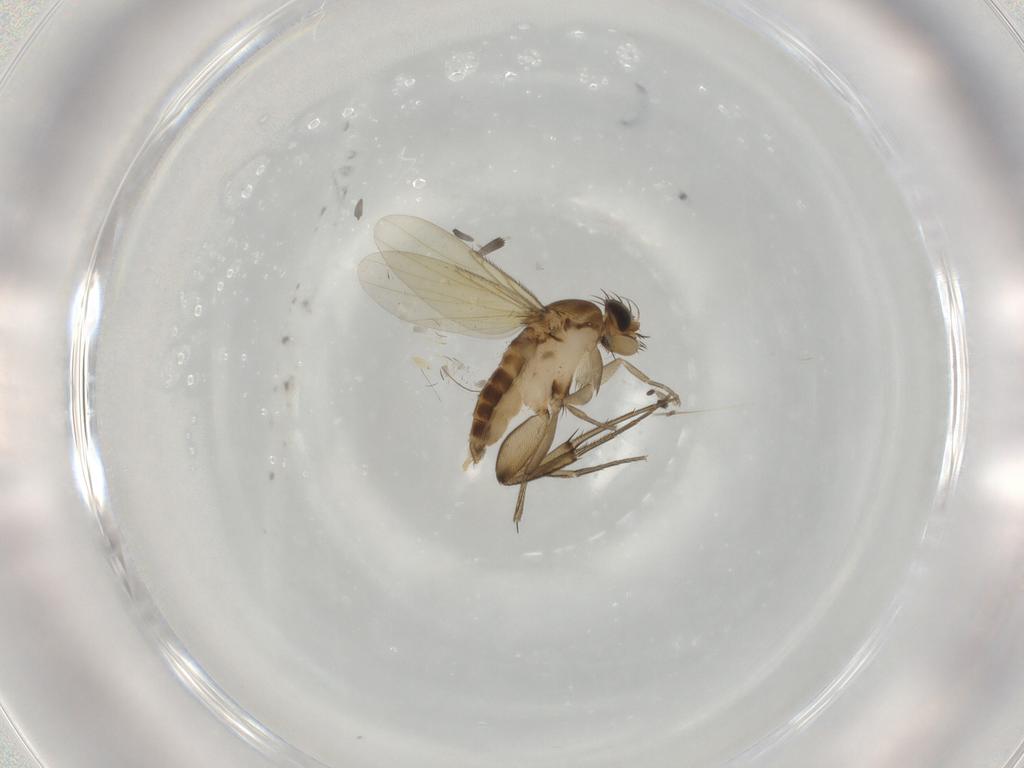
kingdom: Animalia
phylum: Arthropoda
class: Insecta
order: Diptera
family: Phoridae
